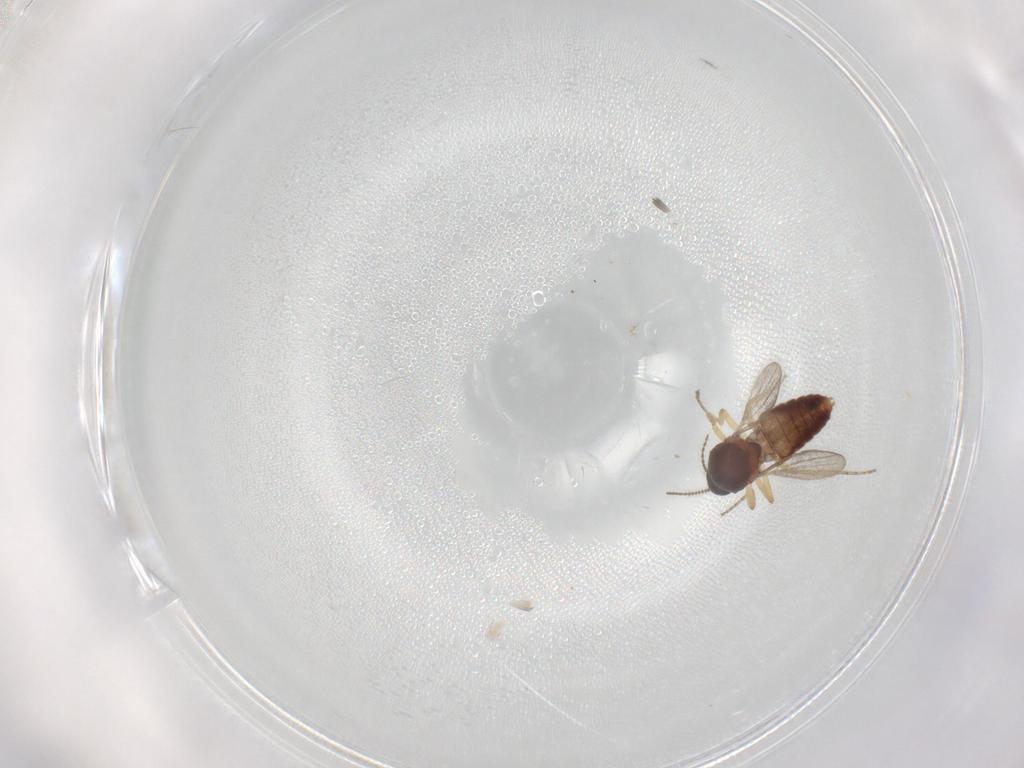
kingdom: Animalia
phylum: Arthropoda
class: Insecta
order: Diptera
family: Ceratopogonidae
